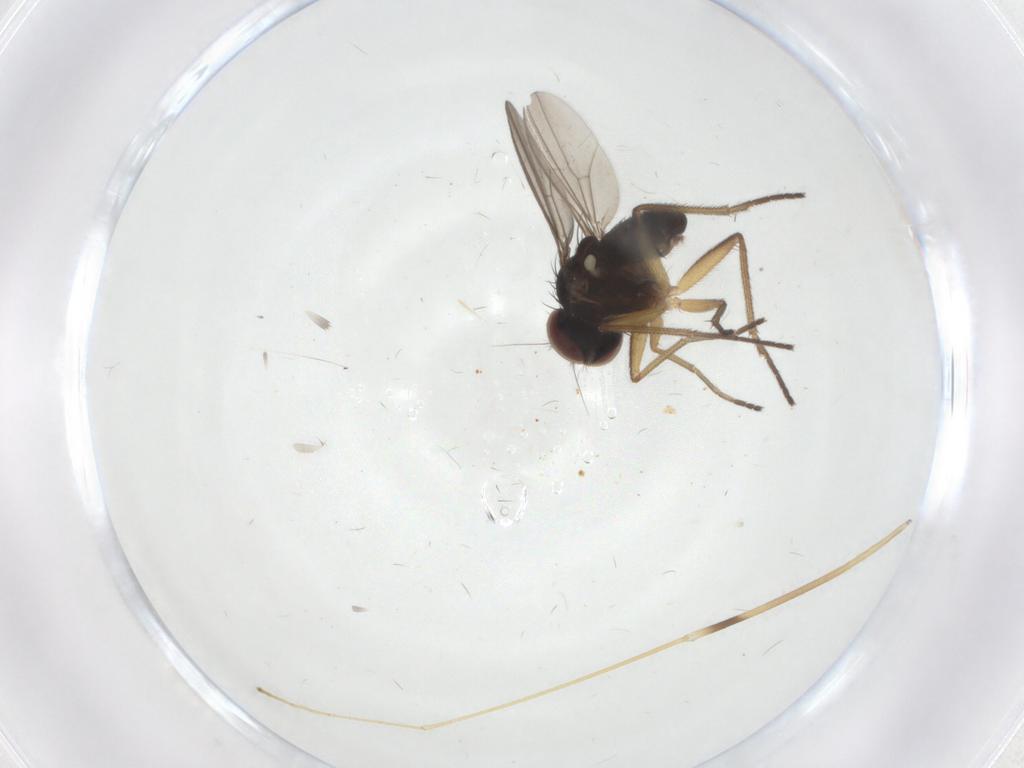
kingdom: Animalia
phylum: Arthropoda
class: Insecta
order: Diptera
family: Dolichopodidae
